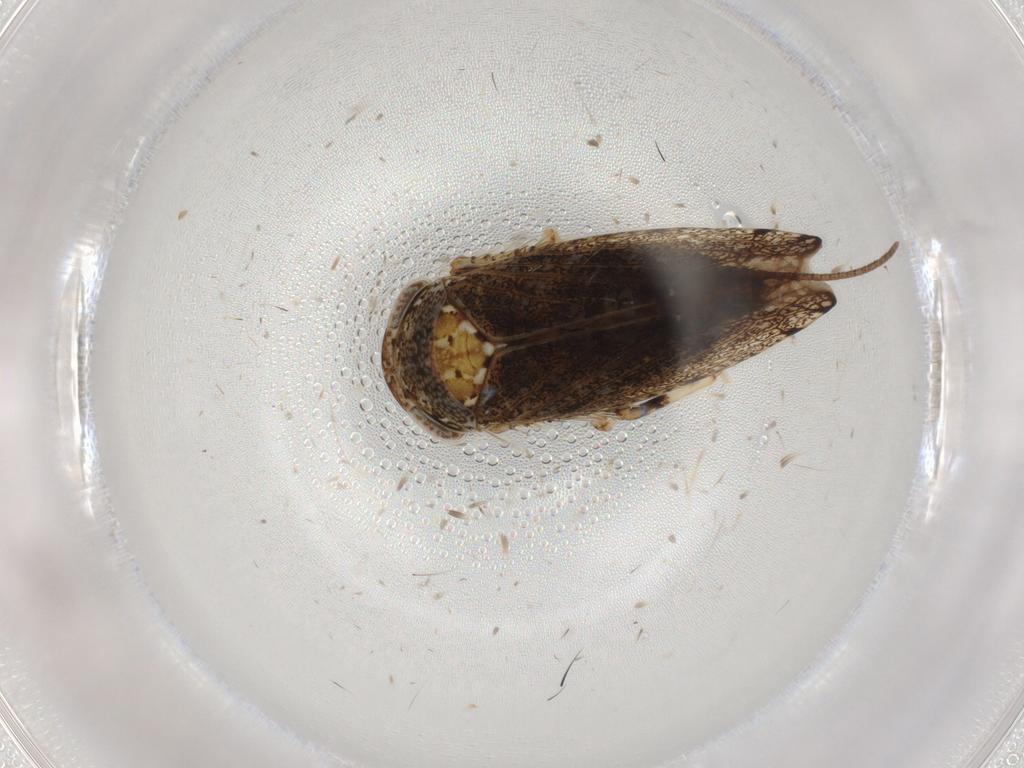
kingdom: Animalia
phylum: Arthropoda
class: Insecta
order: Hemiptera
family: Cicadellidae
